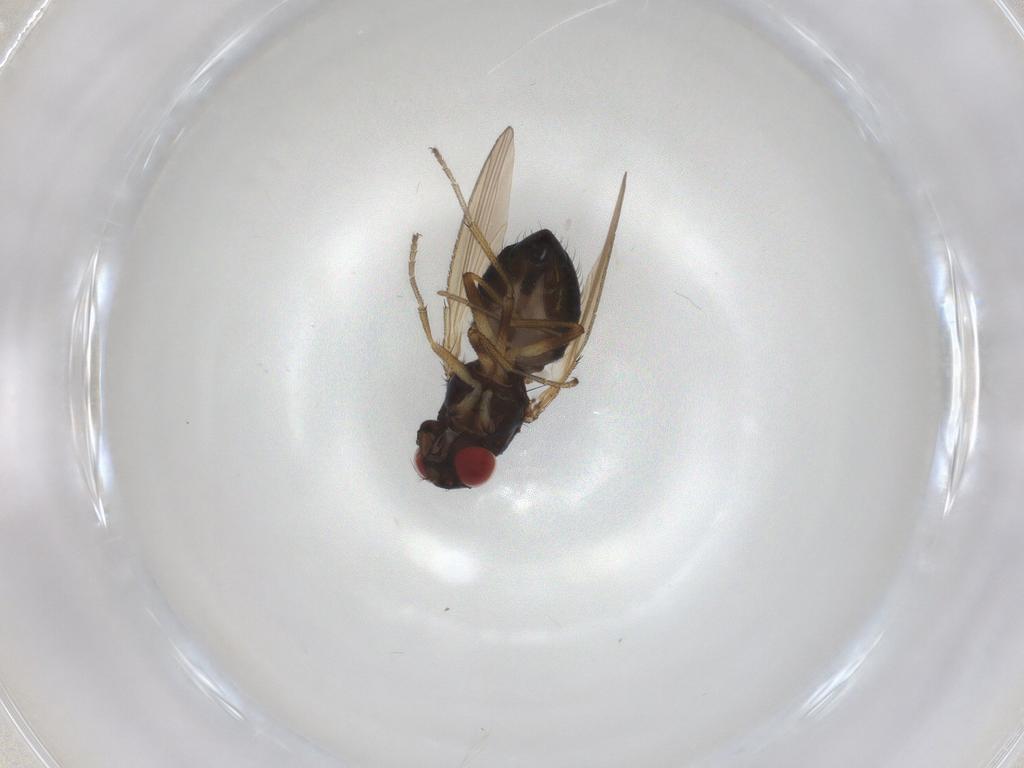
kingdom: Animalia
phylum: Arthropoda
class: Insecta
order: Diptera
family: Camillidae
